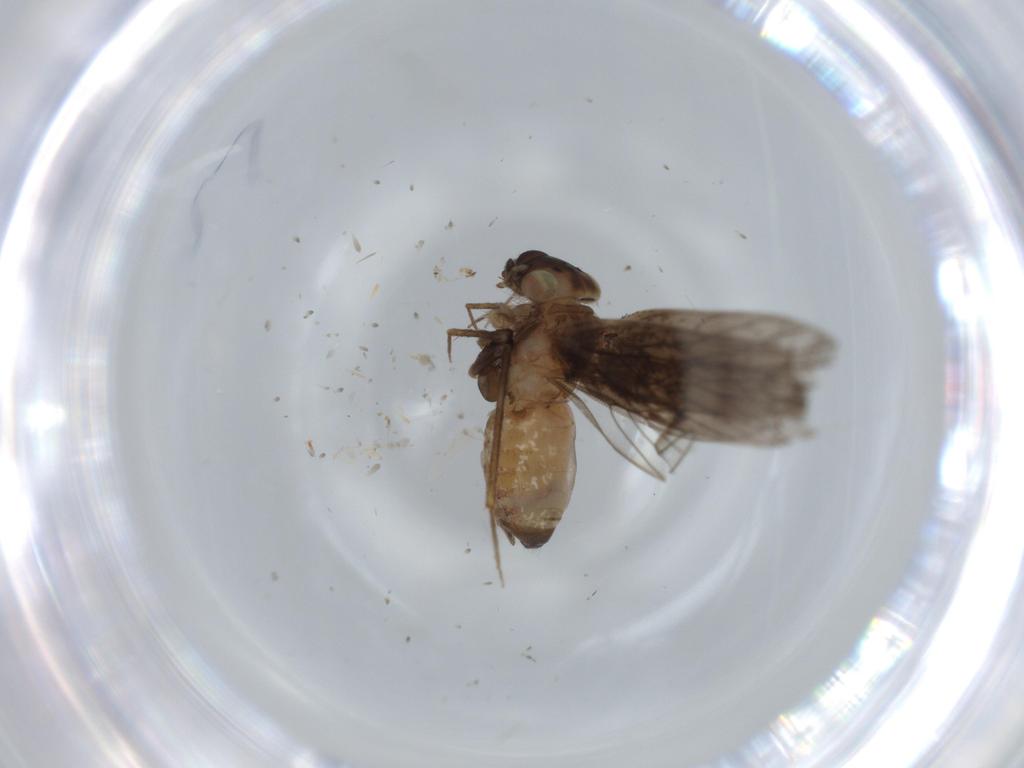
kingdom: Animalia
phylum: Arthropoda
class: Insecta
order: Psocodea
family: Lepidopsocidae
